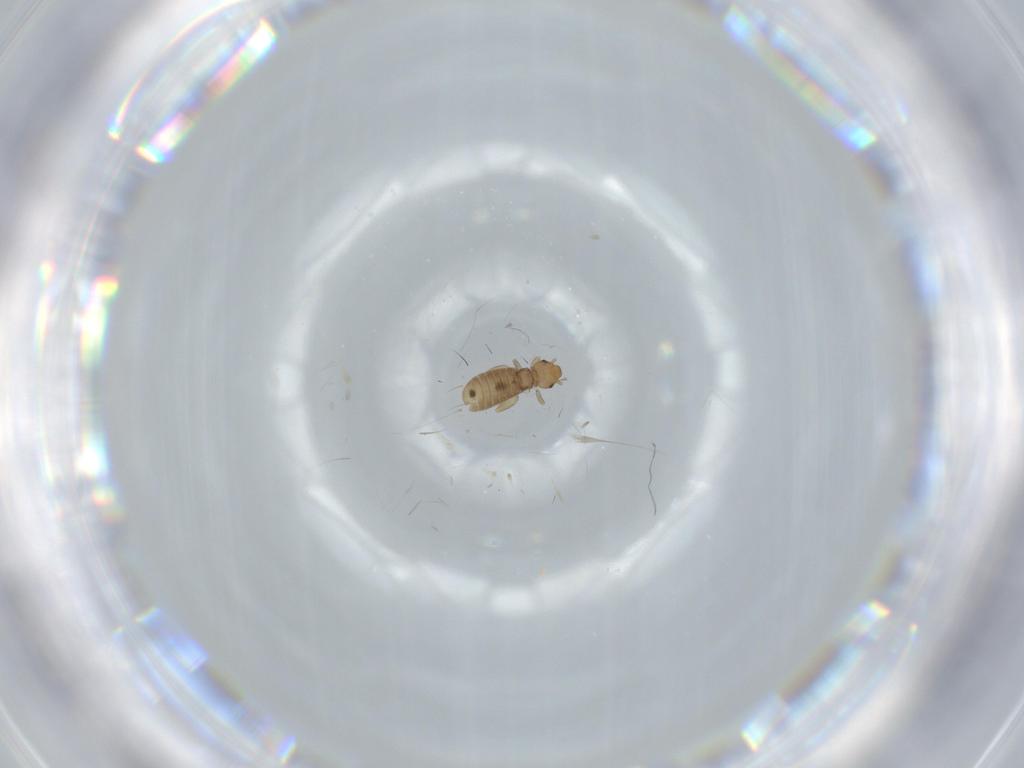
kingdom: Animalia
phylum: Arthropoda
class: Insecta
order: Psocodea
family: Liposcelididae
